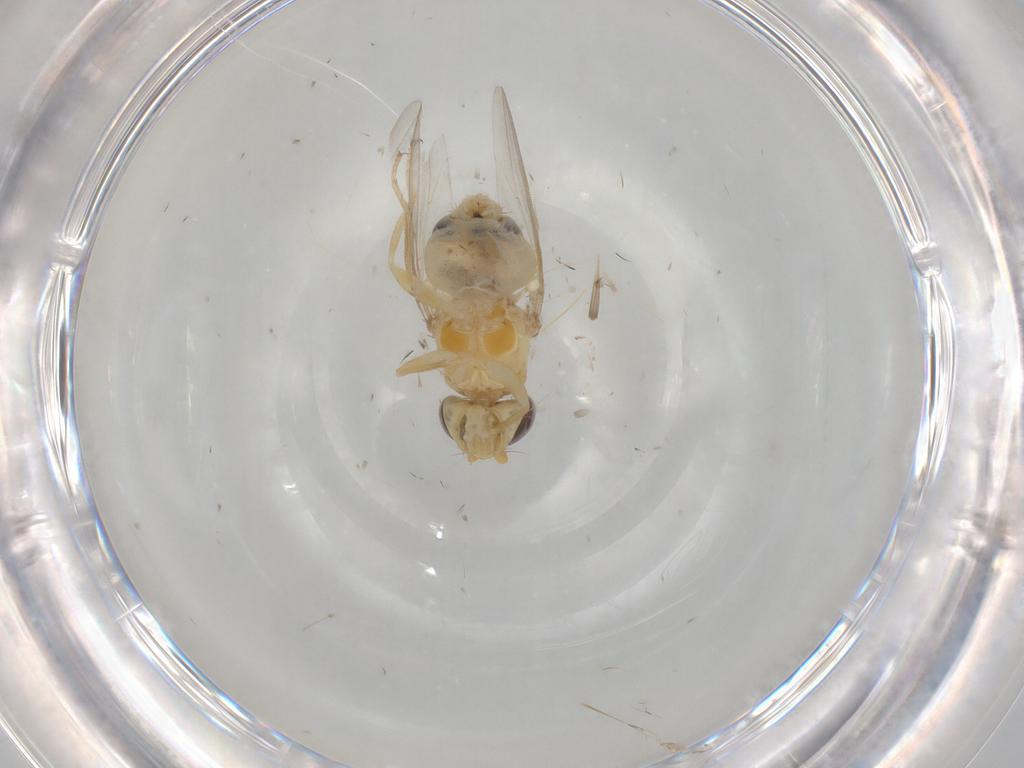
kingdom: Animalia
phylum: Arthropoda
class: Insecta
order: Diptera
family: Asteiidae
